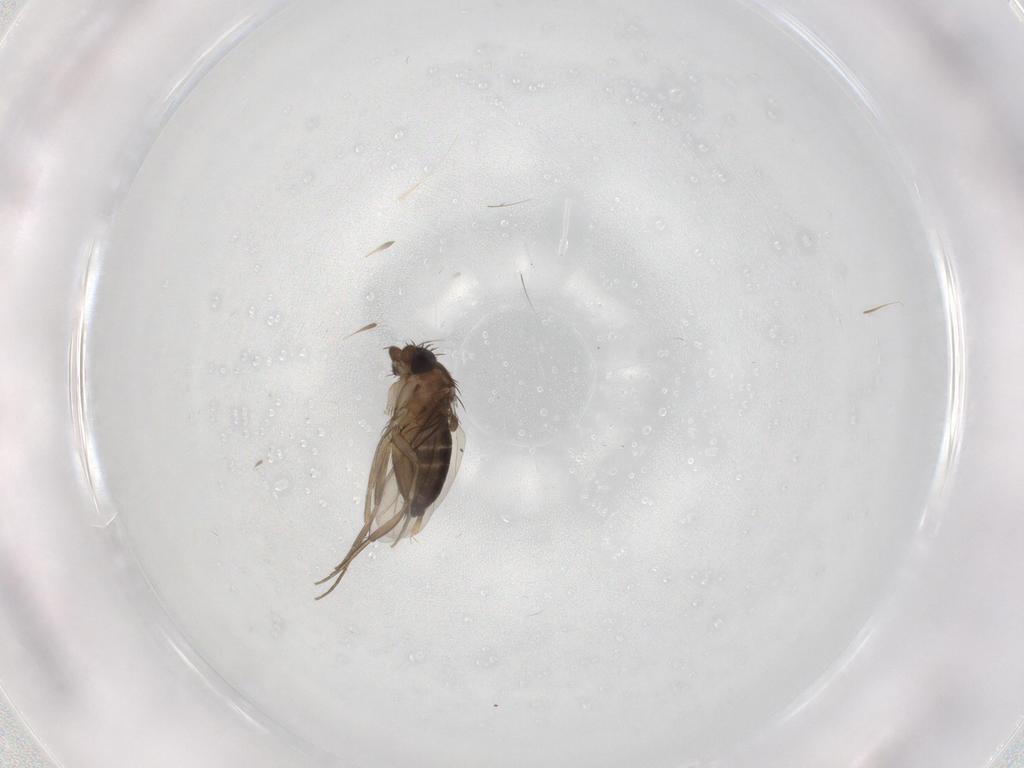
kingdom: Animalia
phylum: Arthropoda
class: Insecta
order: Diptera
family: Phoridae
